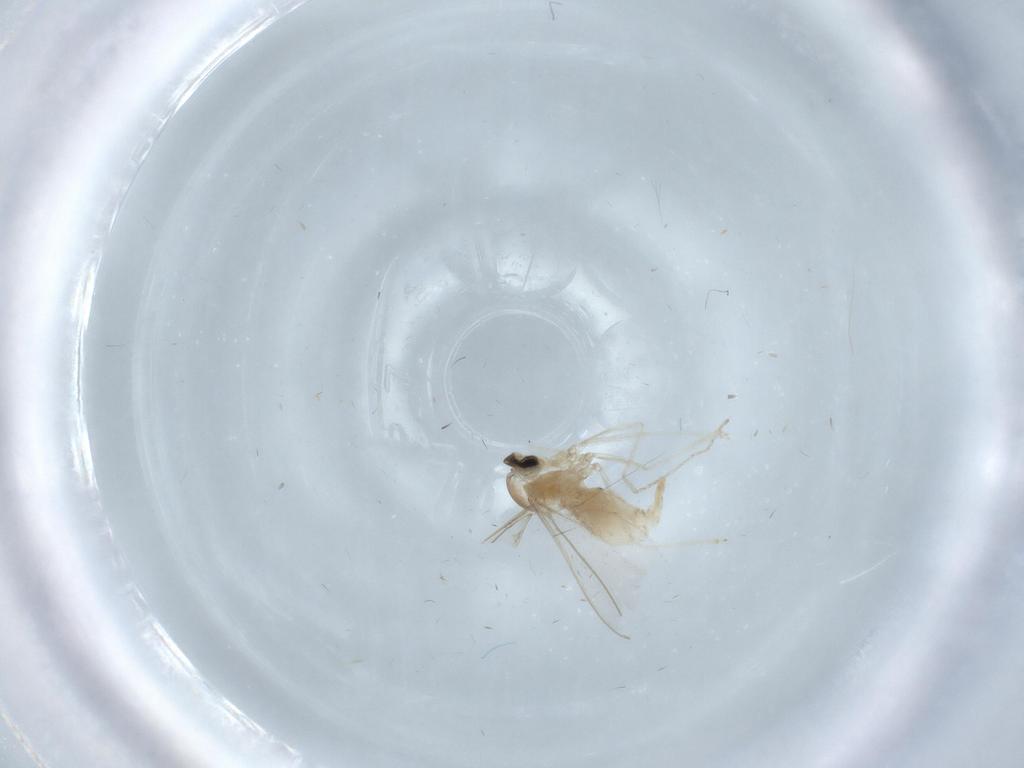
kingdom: Animalia
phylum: Arthropoda
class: Insecta
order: Diptera
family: Cecidomyiidae
